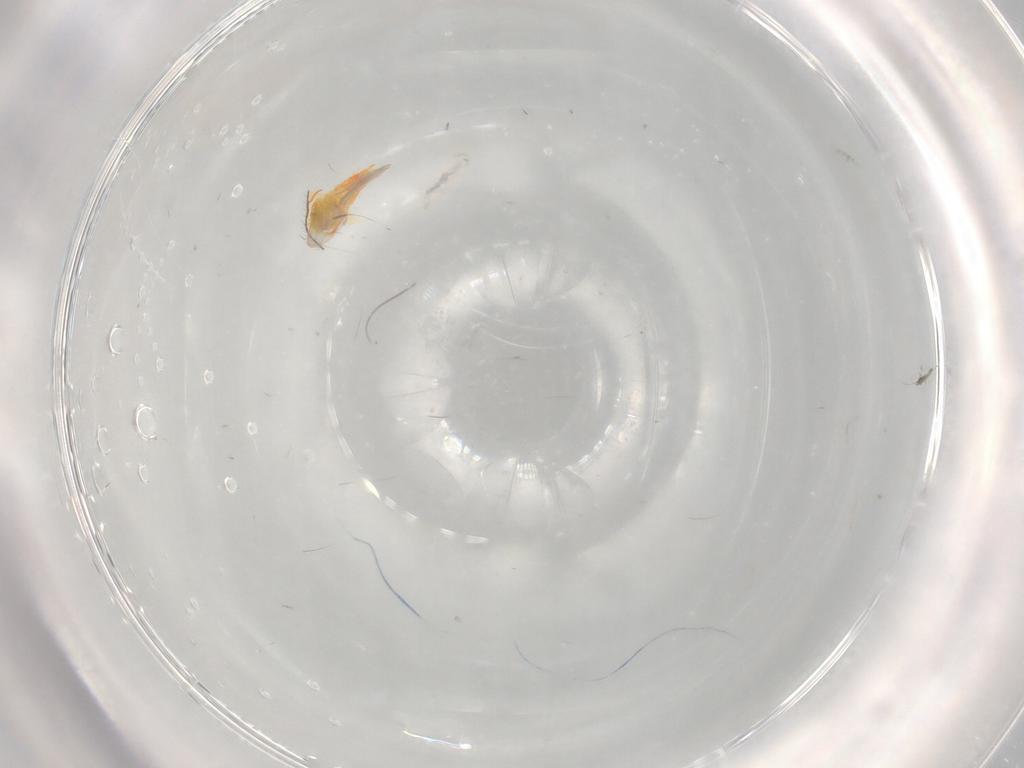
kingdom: Animalia
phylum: Arthropoda
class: Insecta
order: Hemiptera
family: Aleyrodidae
